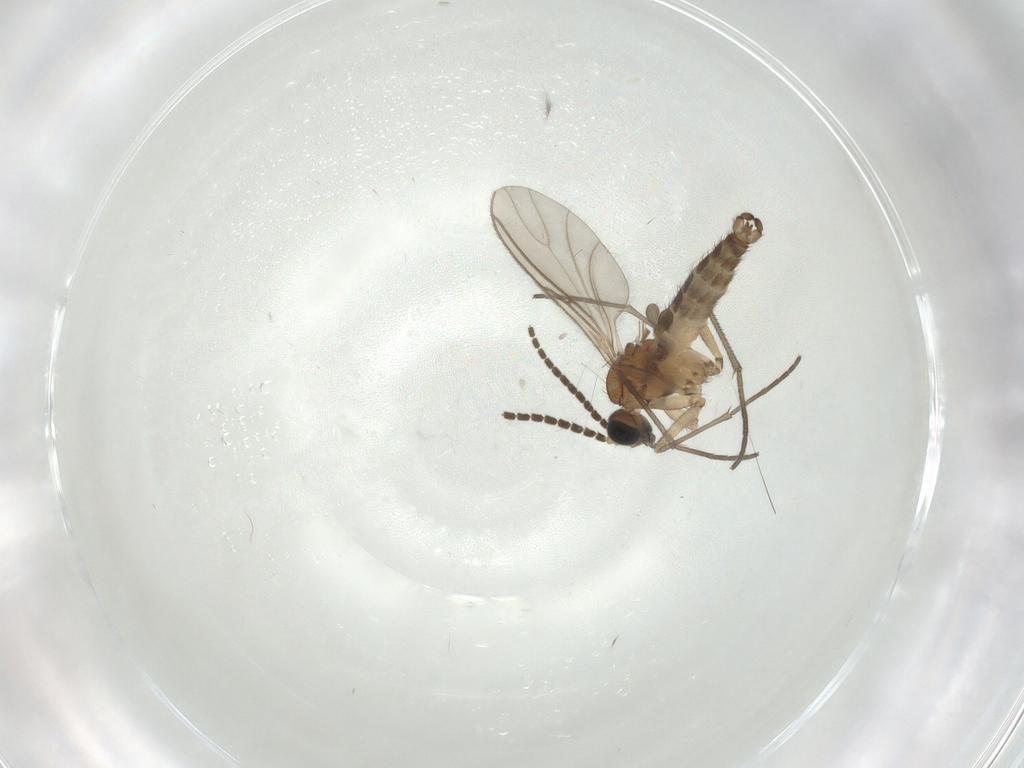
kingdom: Animalia
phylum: Arthropoda
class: Insecta
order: Diptera
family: Sciaridae
